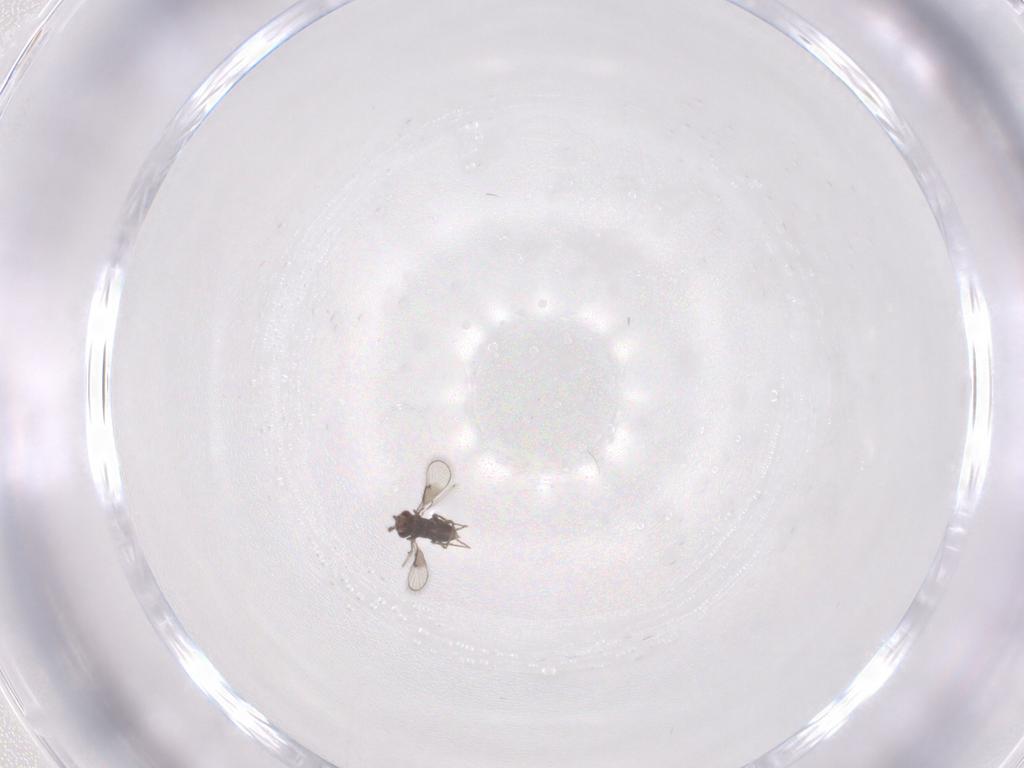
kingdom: Animalia
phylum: Arthropoda
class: Insecta
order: Hymenoptera
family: Trichogrammatidae
